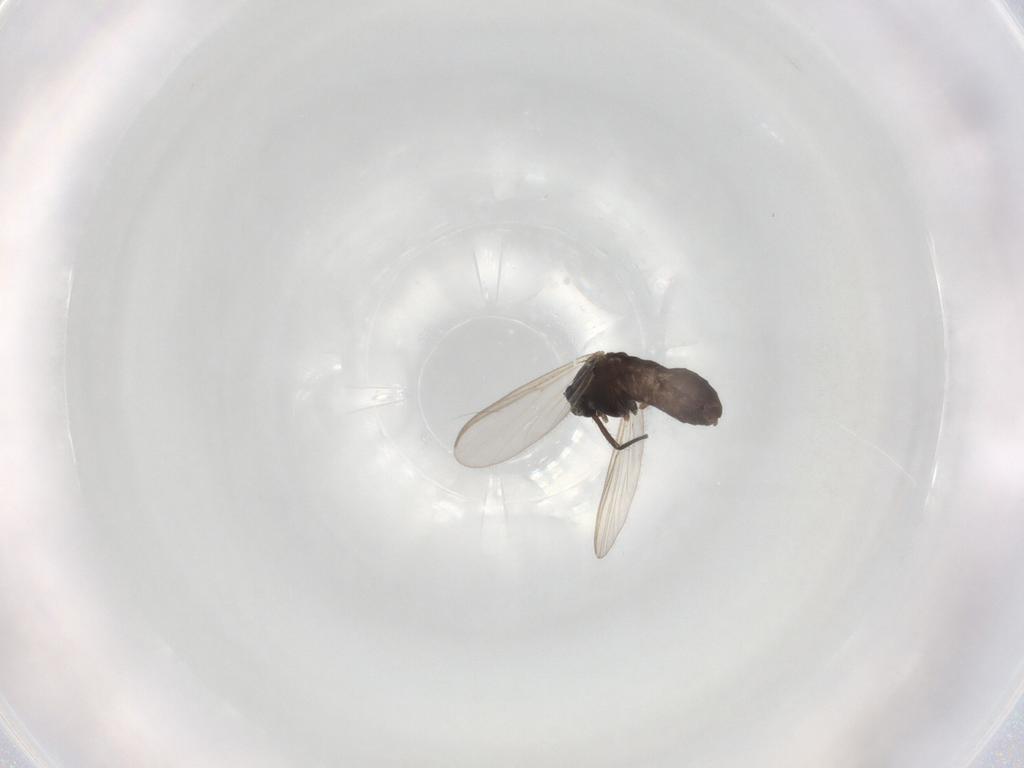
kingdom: Animalia
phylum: Arthropoda
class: Insecta
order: Diptera
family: Chironomidae
